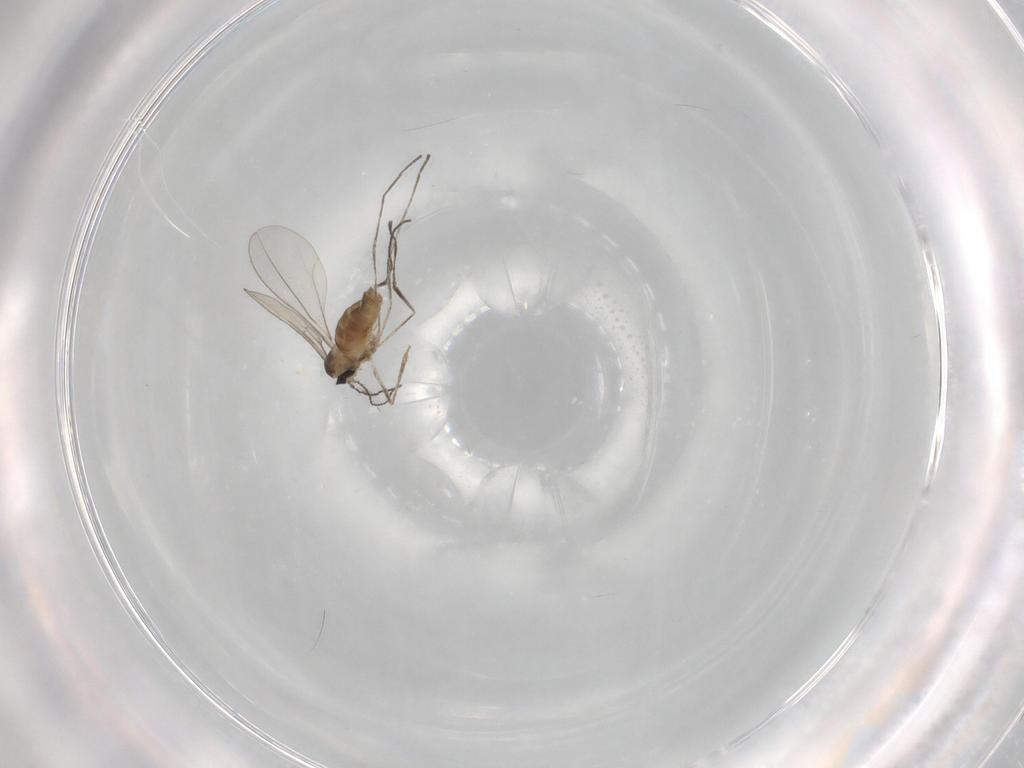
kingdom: Animalia
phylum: Arthropoda
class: Insecta
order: Diptera
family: Cecidomyiidae
